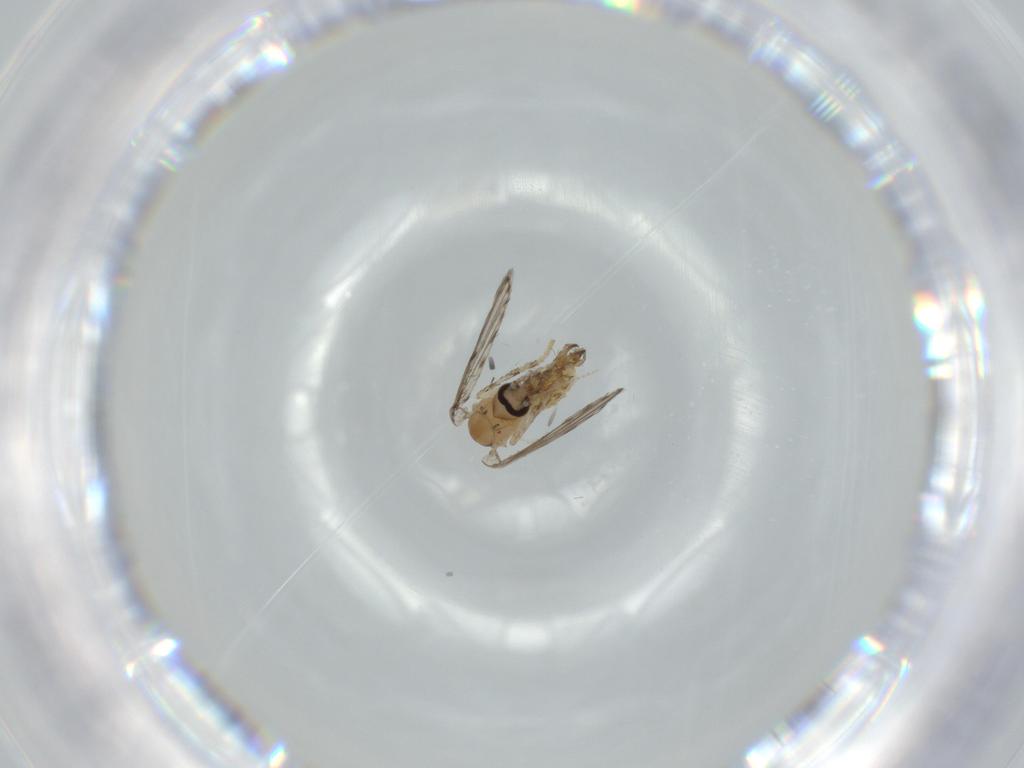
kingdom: Animalia
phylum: Arthropoda
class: Insecta
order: Diptera
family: Psychodidae
